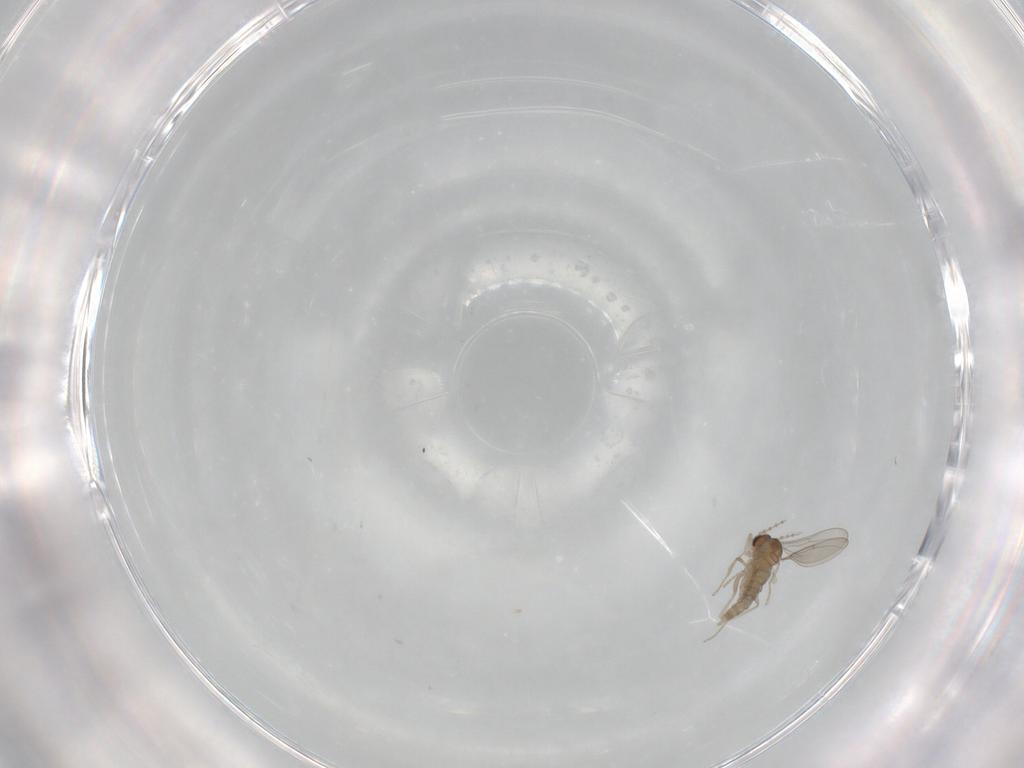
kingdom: Animalia
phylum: Arthropoda
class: Insecta
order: Diptera
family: Cecidomyiidae
